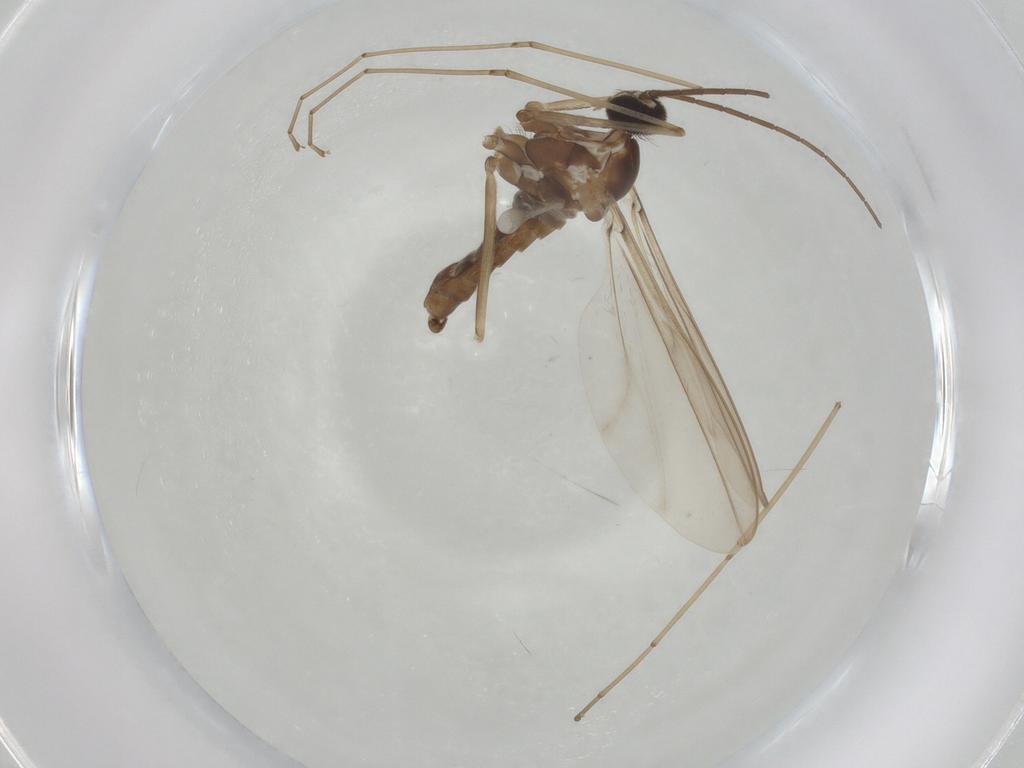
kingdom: Animalia
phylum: Arthropoda
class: Insecta
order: Diptera
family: Cecidomyiidae
